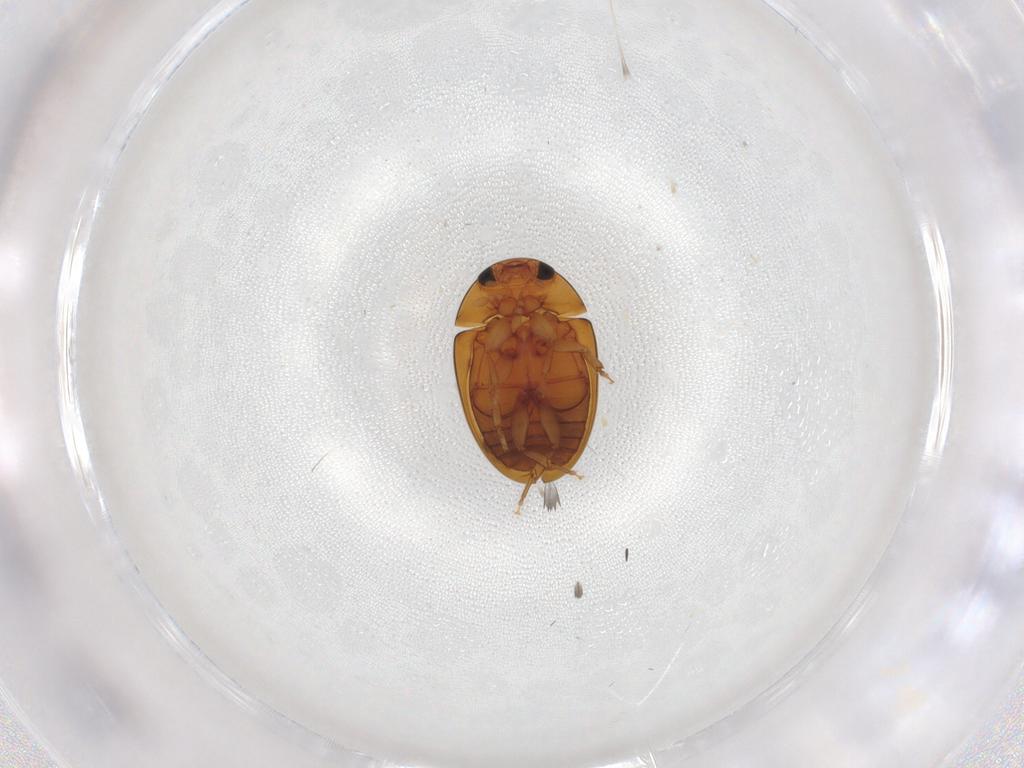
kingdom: Animalia
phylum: Arthropoda
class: Insecta
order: Coleoptera
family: Phalacridae
